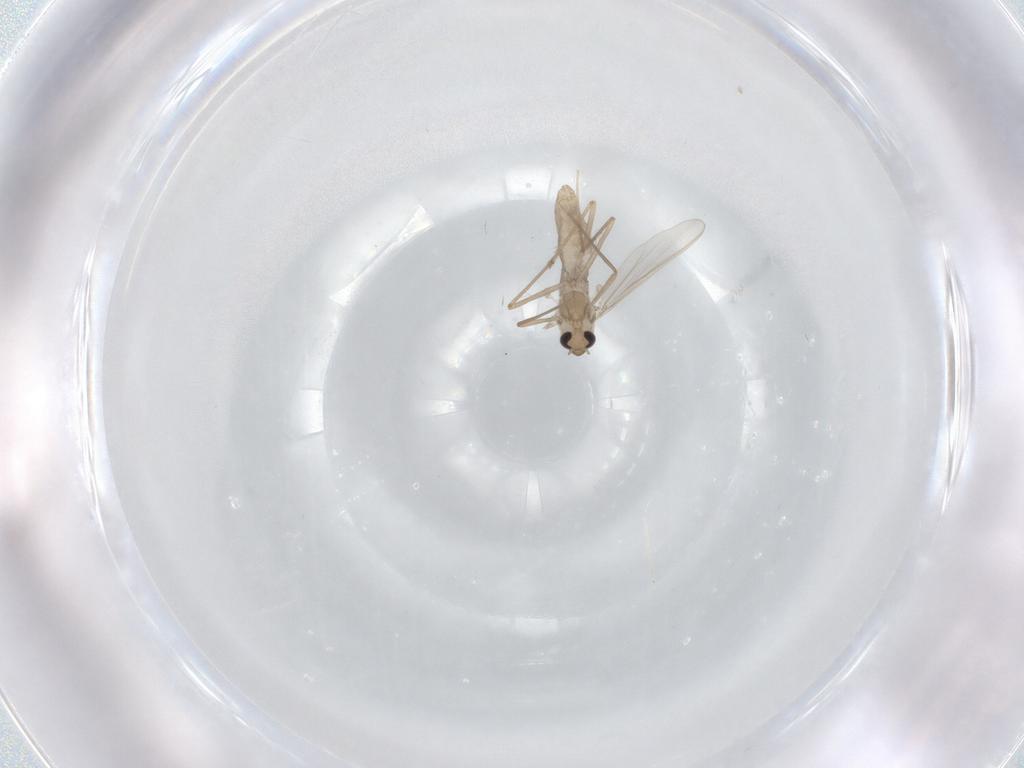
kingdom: Animalia
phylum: Arthropoda
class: Insecta
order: Diptera
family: Chironomidae
